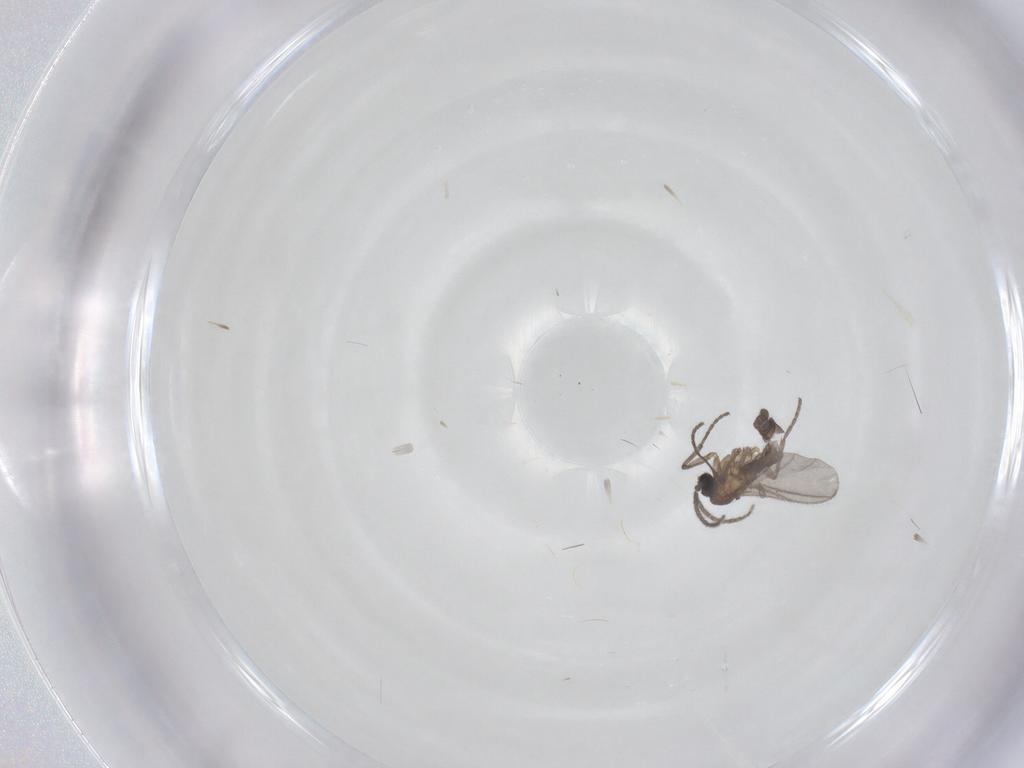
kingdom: Animalia
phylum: Arthropoda
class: Insecta
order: Diptera
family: Sciaridae
